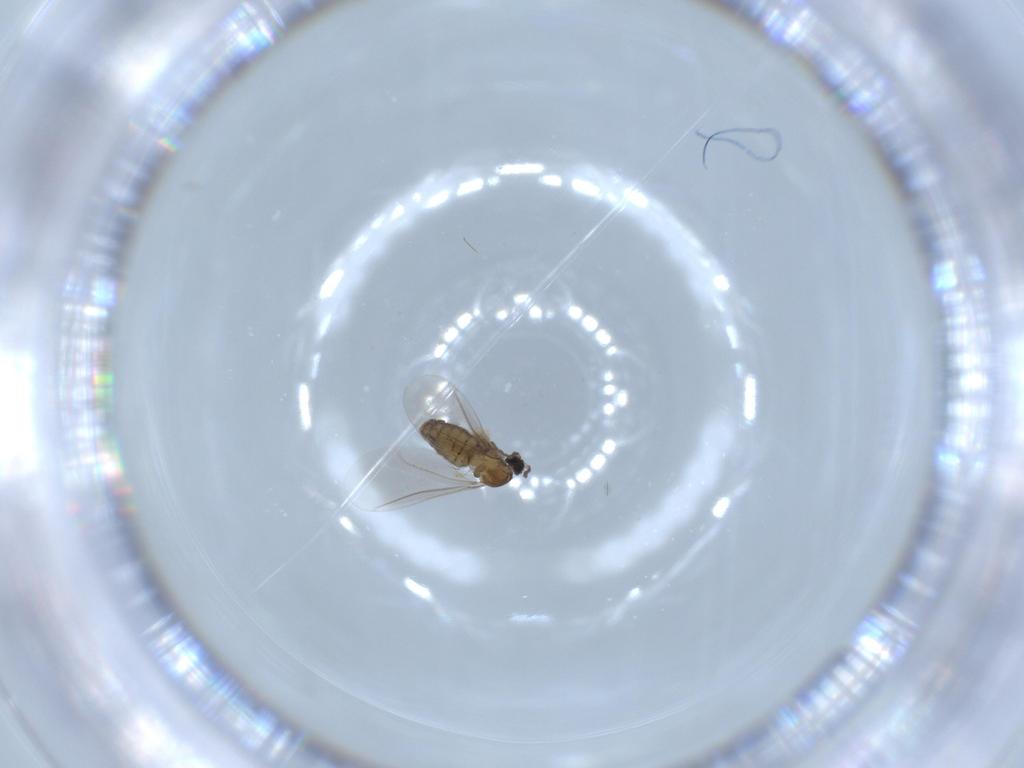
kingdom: Animalia
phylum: Arthropoda
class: Insecta
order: Diptera
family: Cecidomyiidae
